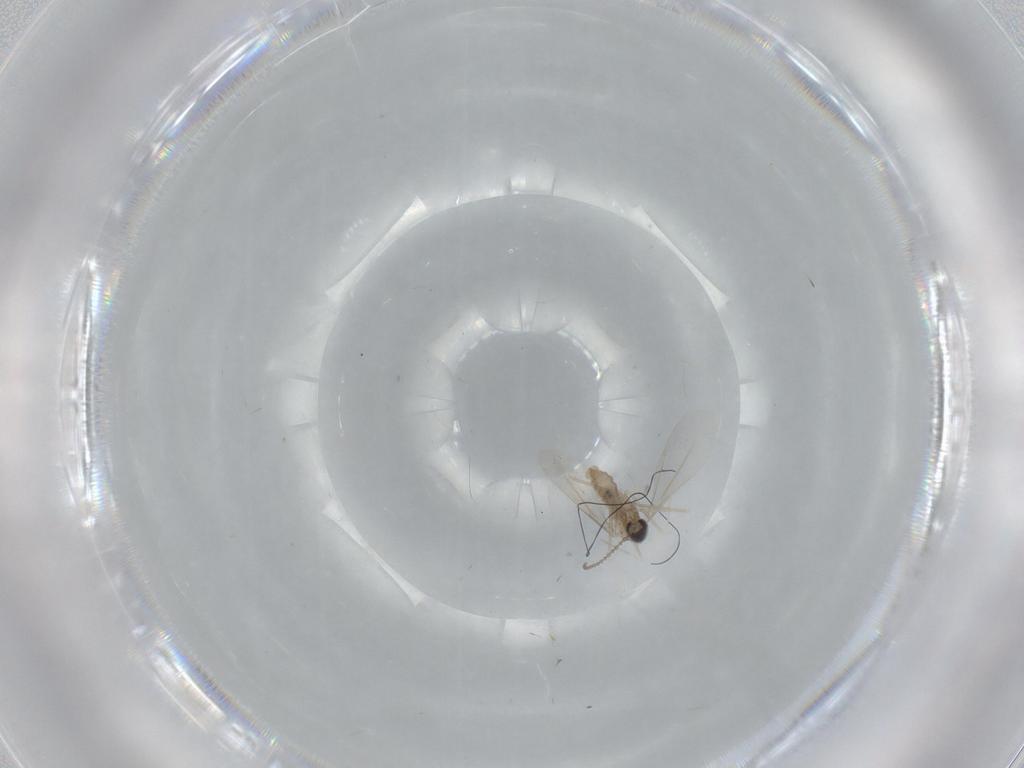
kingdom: Animalia
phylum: Arthropoda
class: Insecta
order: Diptera
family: Cecidomyiidae
